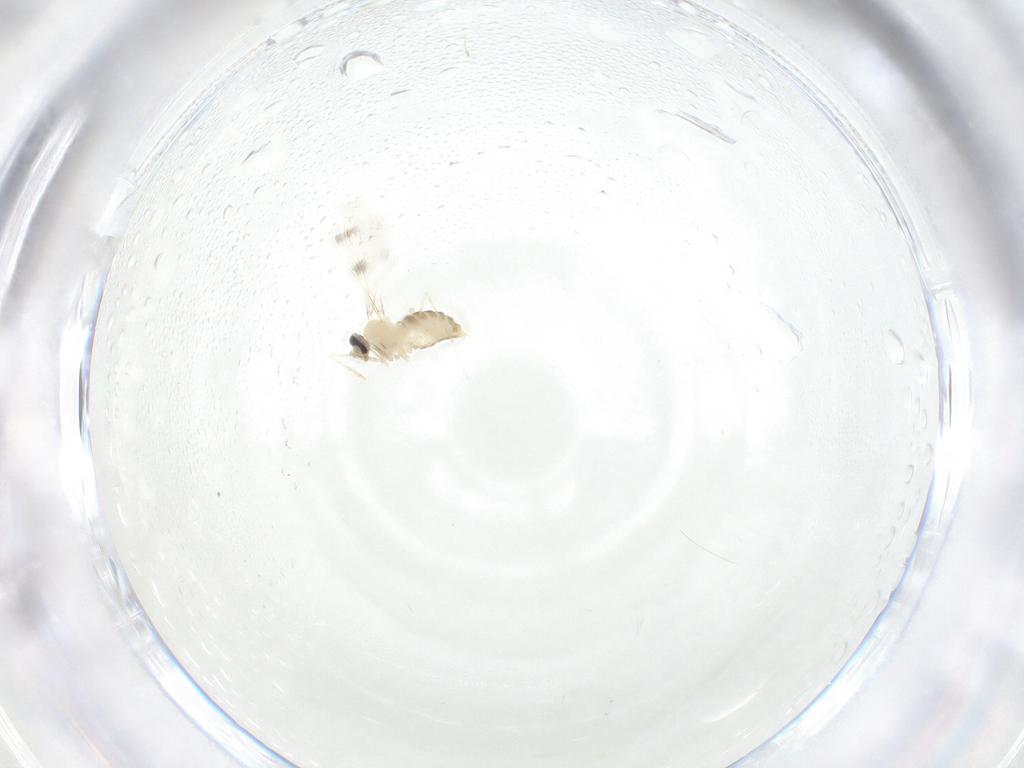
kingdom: Animalia
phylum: Arthropoda
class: Insecta
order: Diptera
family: Cecidomyiidae
